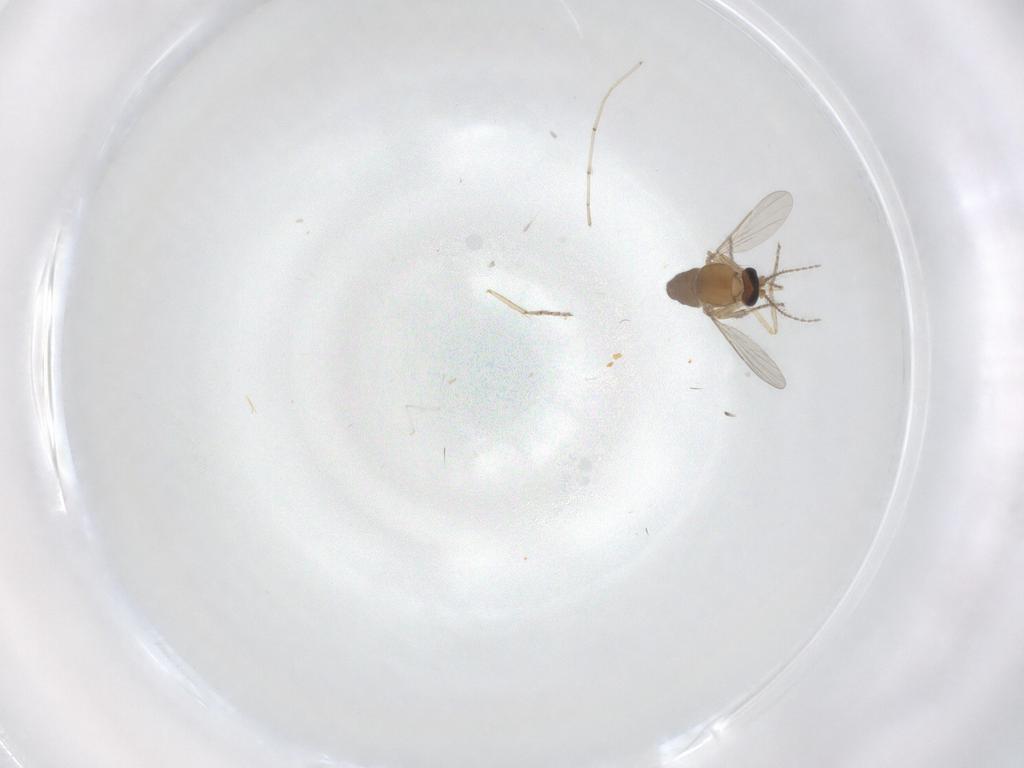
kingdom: Animalia
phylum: Arthropoda
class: Insecta
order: Diptera
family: Ceratopogonidae
